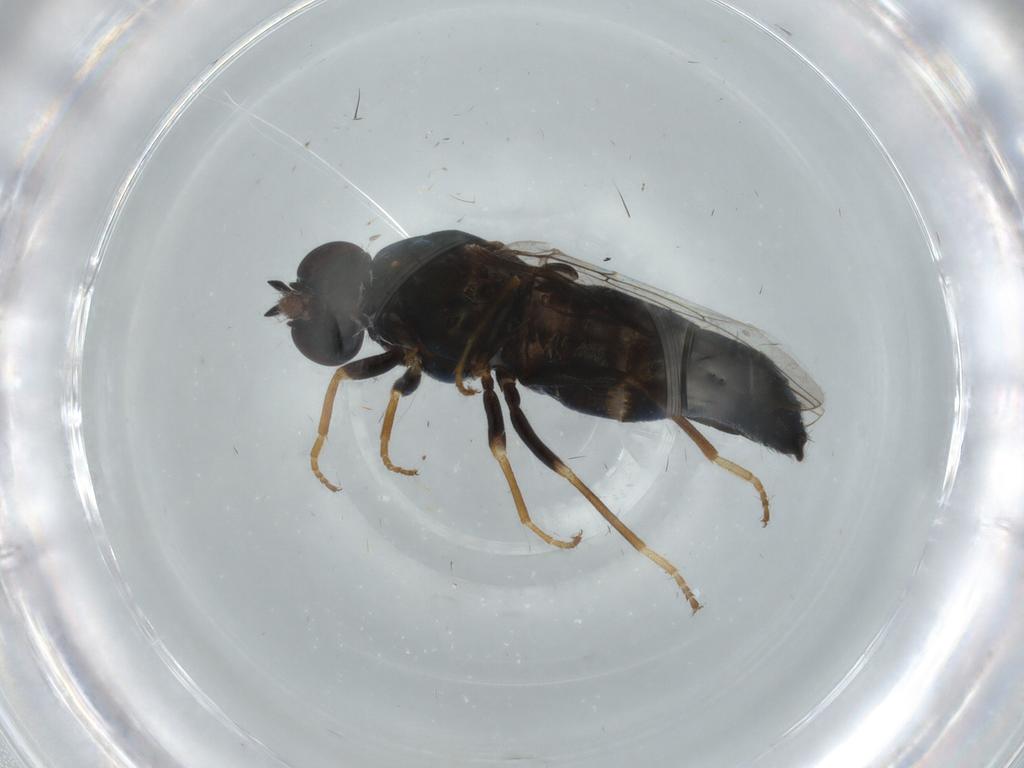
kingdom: Animalia
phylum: Arthropoda
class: Insecta
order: Diptera
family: Scenopinidae
